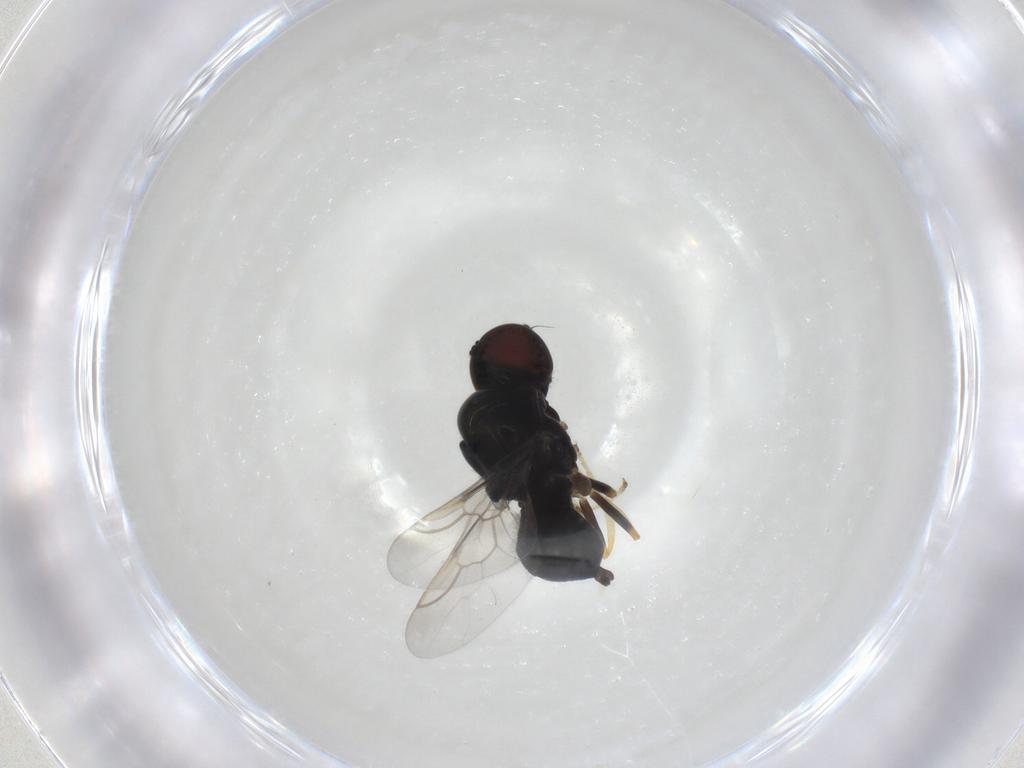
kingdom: Animalia
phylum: Arthropoda
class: Insecta
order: Diptera
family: Stratiomyidae
